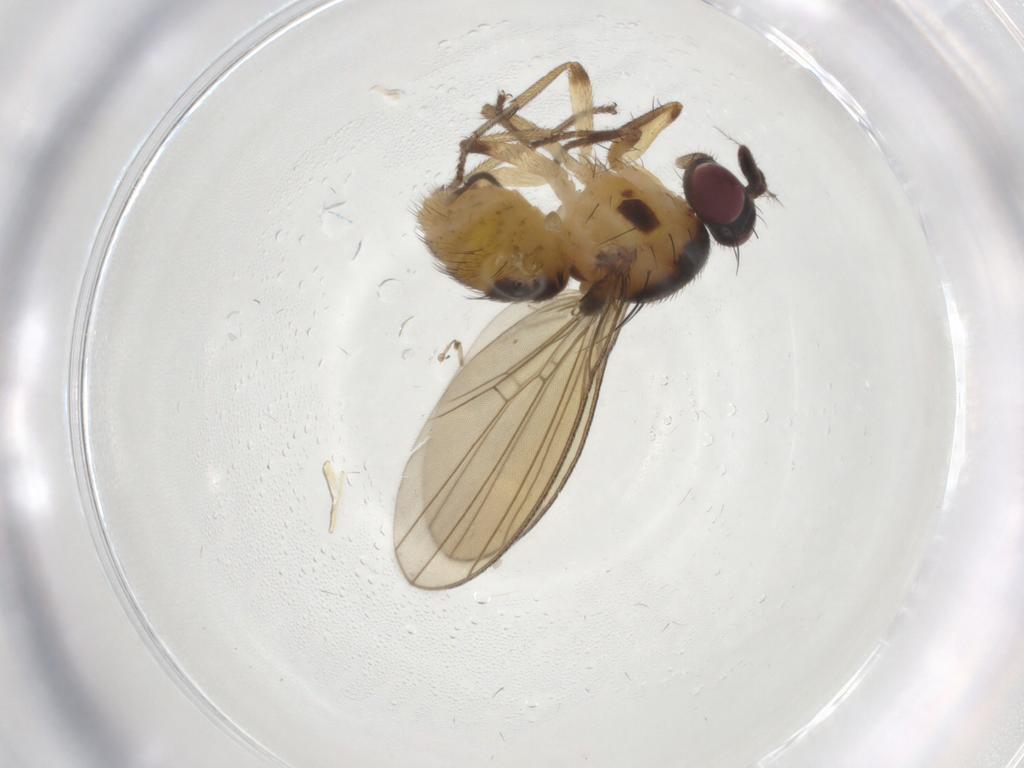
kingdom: Animalia
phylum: Arthropoda
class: Insecta
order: Diptera
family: Lauxaniidae
